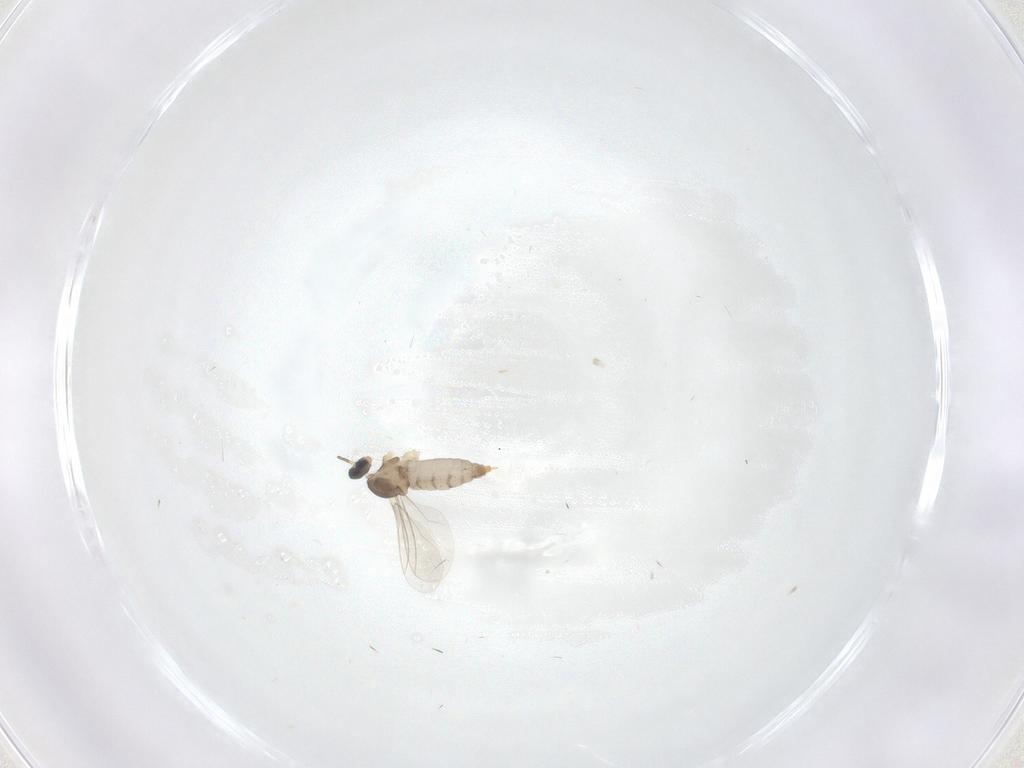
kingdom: Animalia
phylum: Arthropoda
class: Insecta
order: Diptera
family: Cecidomyiidae
